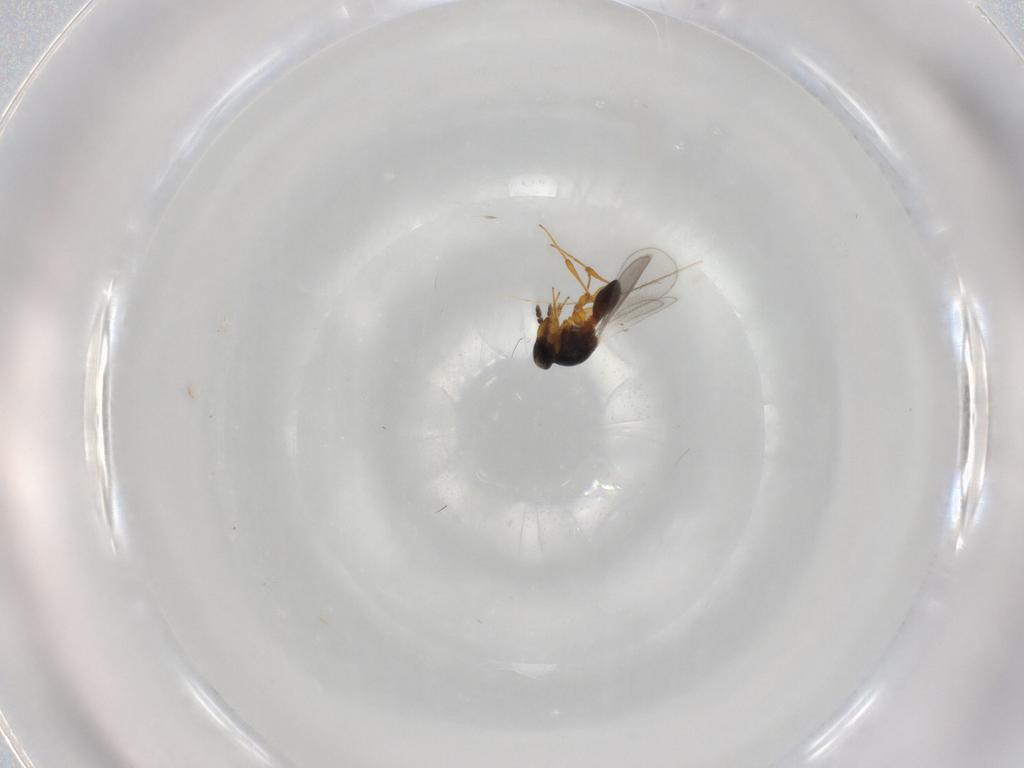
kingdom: Animalia
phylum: Arthropoda
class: Insecta
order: Hymenoptera
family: Platygastridae
